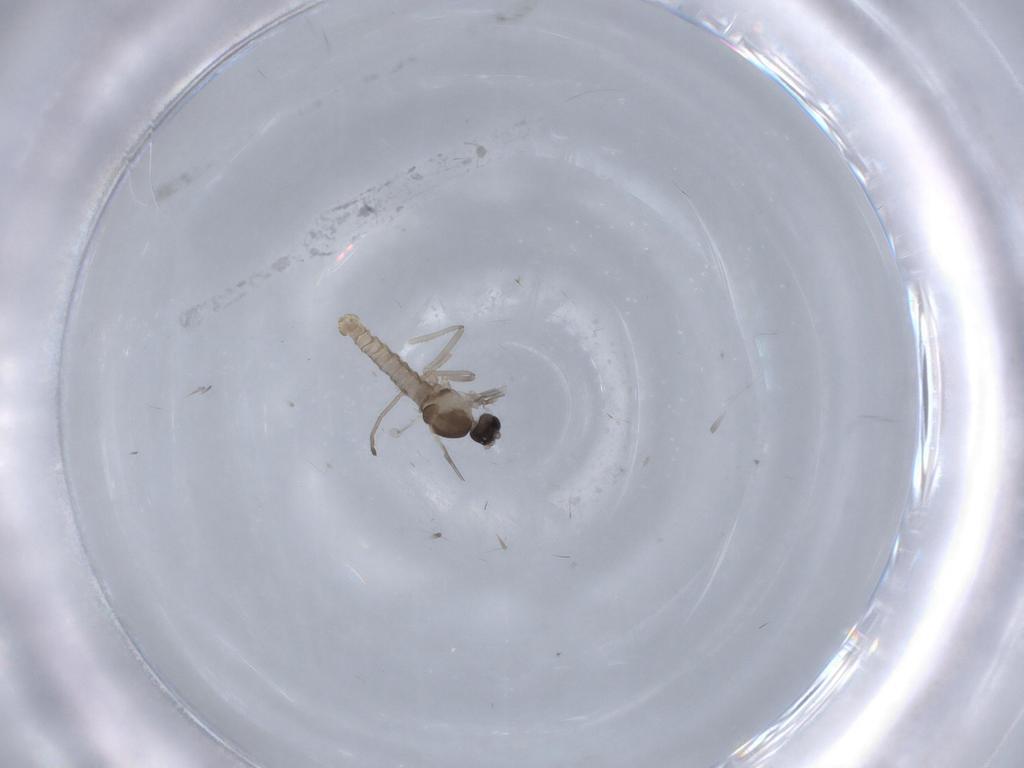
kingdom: Animalia
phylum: Arthropoda
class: Insecta
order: Diptera
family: Cecidomyiidae
